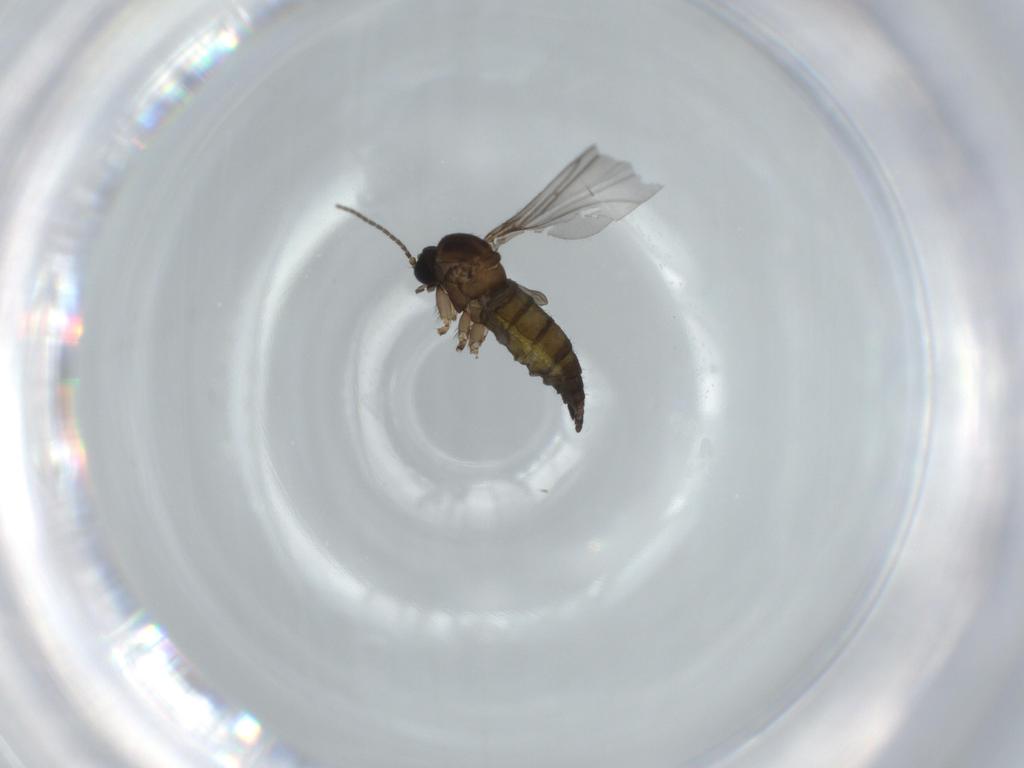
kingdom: Animalia
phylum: Arthropoda
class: Insecta
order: Diptera
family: Sciaridae
